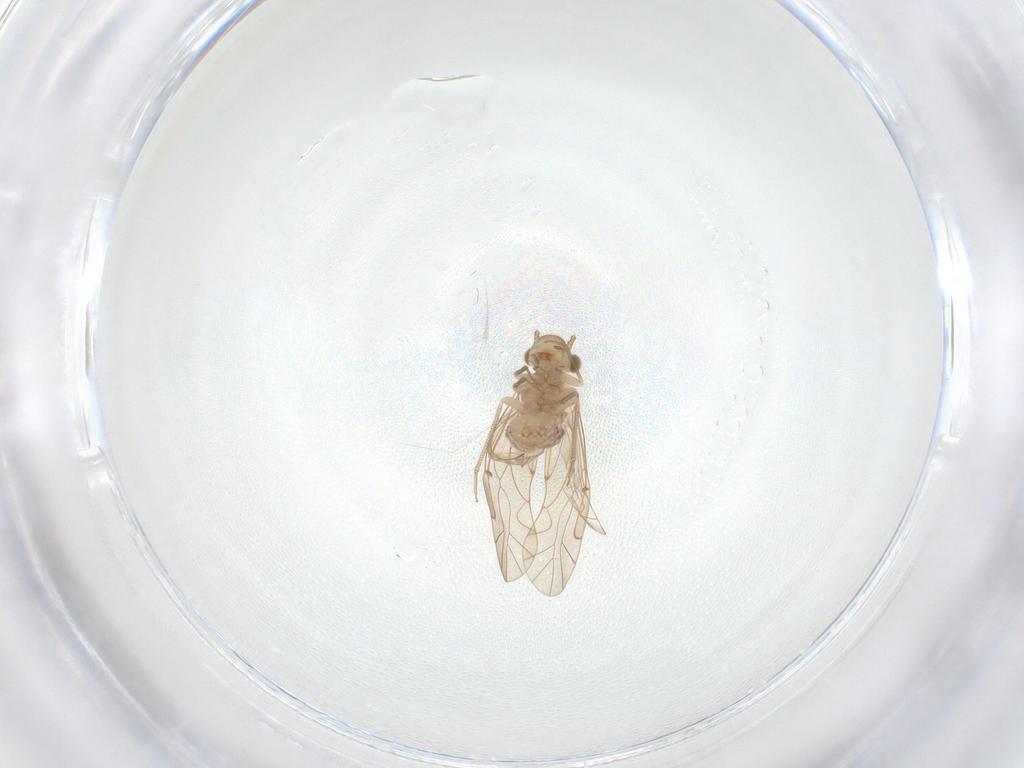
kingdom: Animalia
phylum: Arthropoda
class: Insecta
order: Psocodea
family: Lachesillidae
